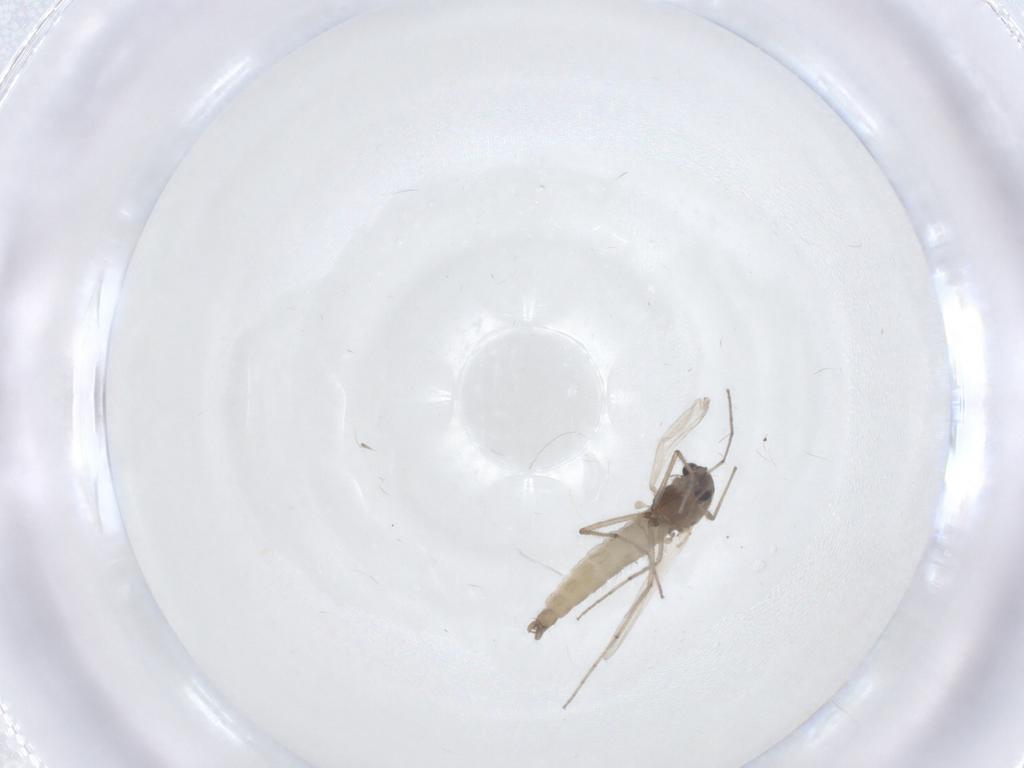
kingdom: Animalia
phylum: Arthropoda
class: Insecta
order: Diptera
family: Chironomidae
